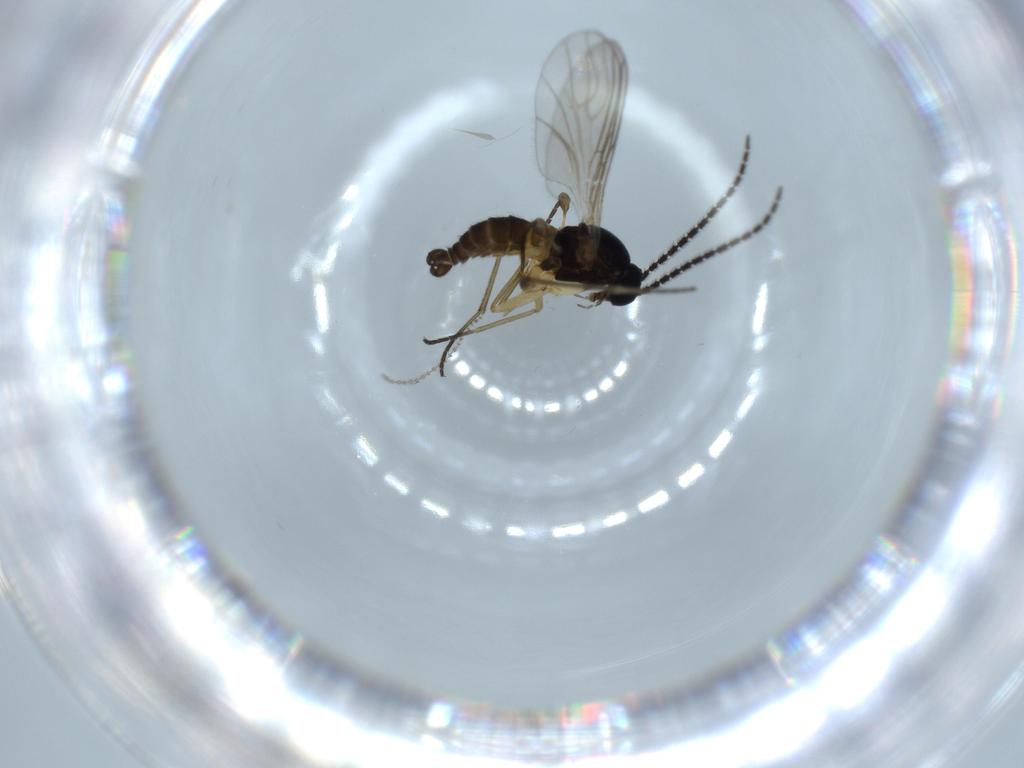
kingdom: Animalia
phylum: Arthropoda
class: Insecta
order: Diptera
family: Sciaridae
